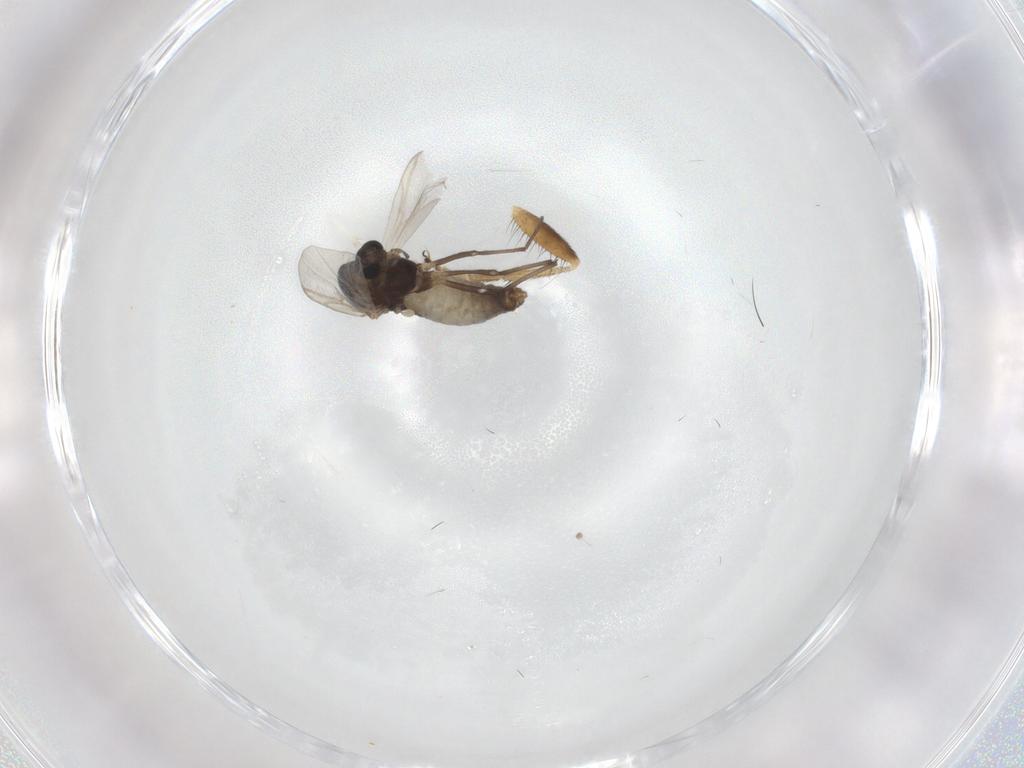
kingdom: Animalia
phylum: Arthropoda
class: Insecta
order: Diptera
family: Chironomidae
